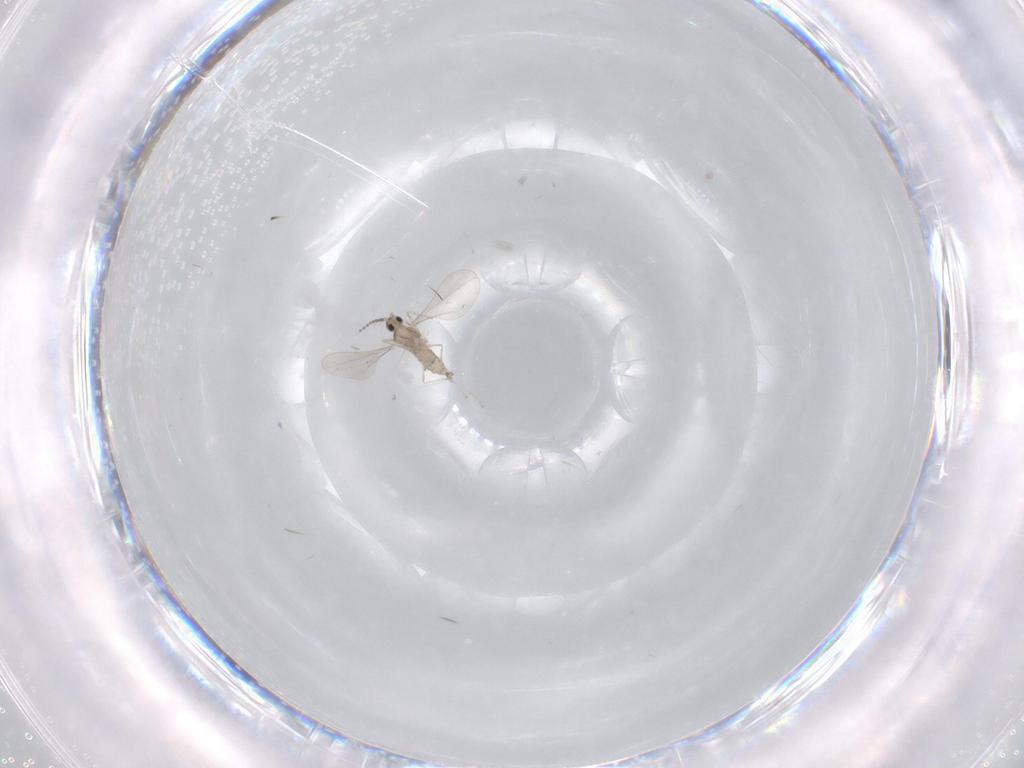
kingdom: Animalia
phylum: Arthropoda
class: Insecta
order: Diptera
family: Cecidomyiidae
